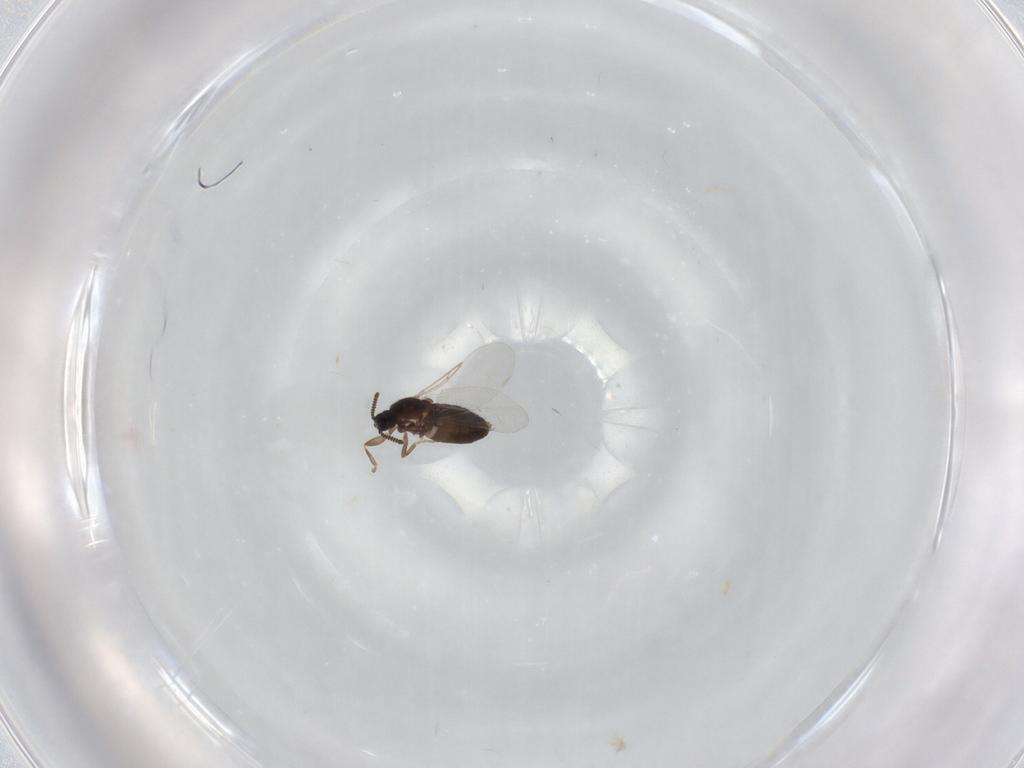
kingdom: Animalia
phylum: Arthropoda
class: Insecta
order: Diptera
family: Scatopsidae
